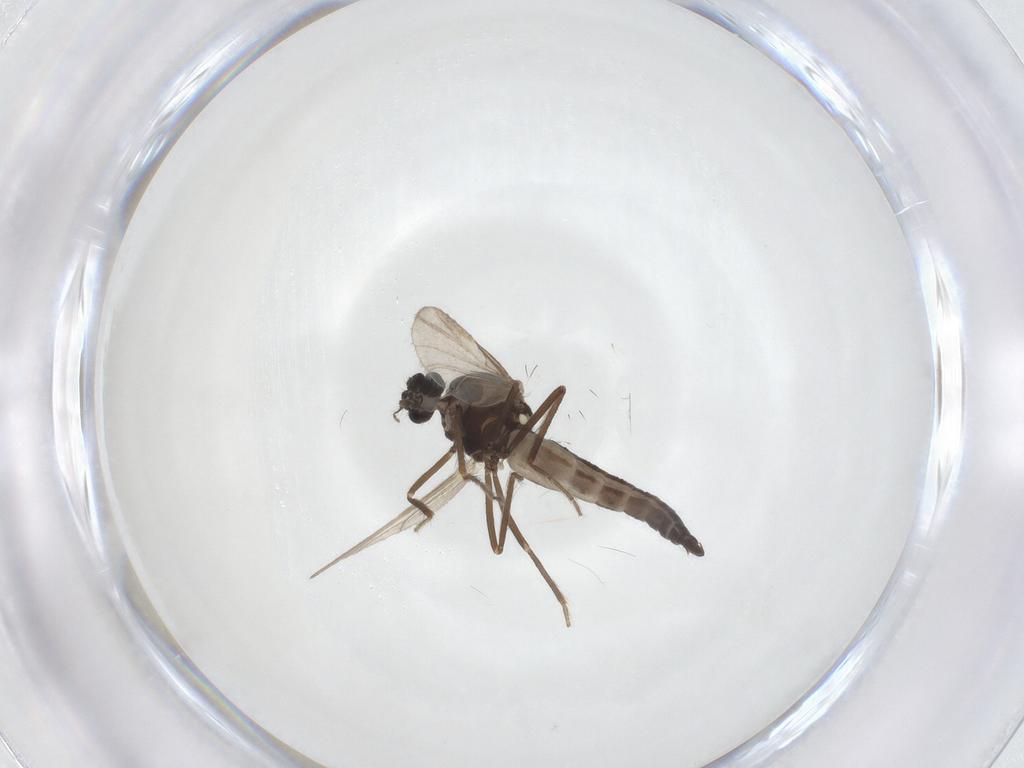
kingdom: Animalia
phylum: Arthropoda
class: Insecta
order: Diptera
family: Ceratopogonidae
